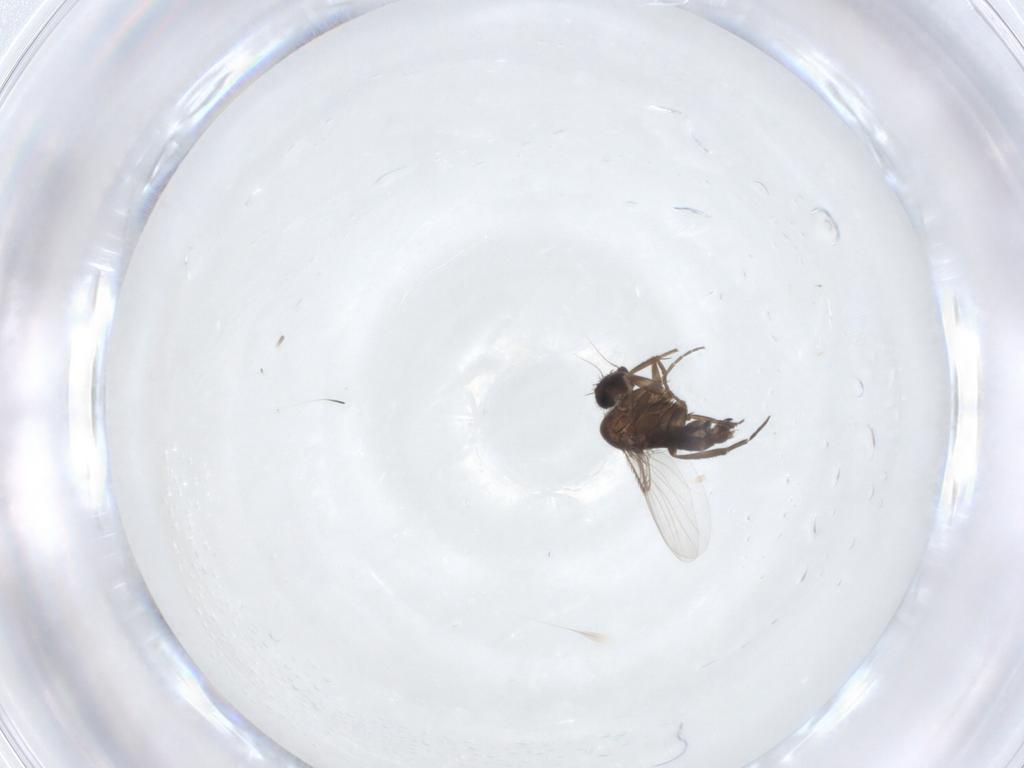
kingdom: Animalia
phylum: Arthropoda
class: Insecta
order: Diptera
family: Phoridae
